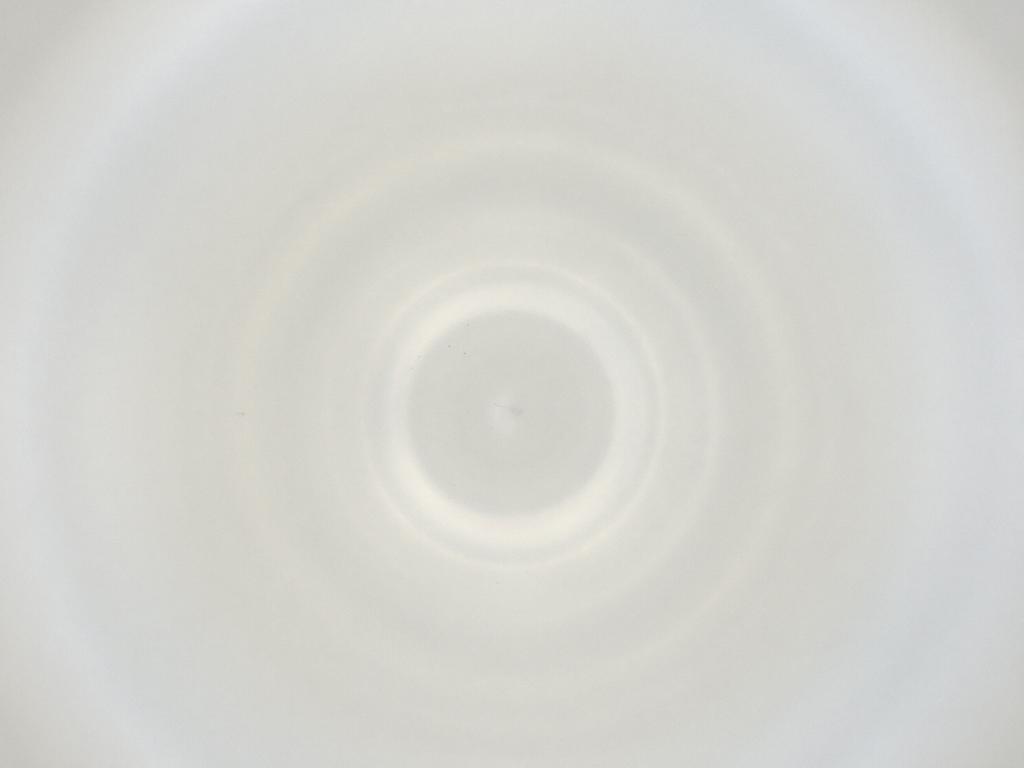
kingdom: Animalia
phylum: Arthropoda
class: Insecta
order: Diptera
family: Cecidomyiidae
